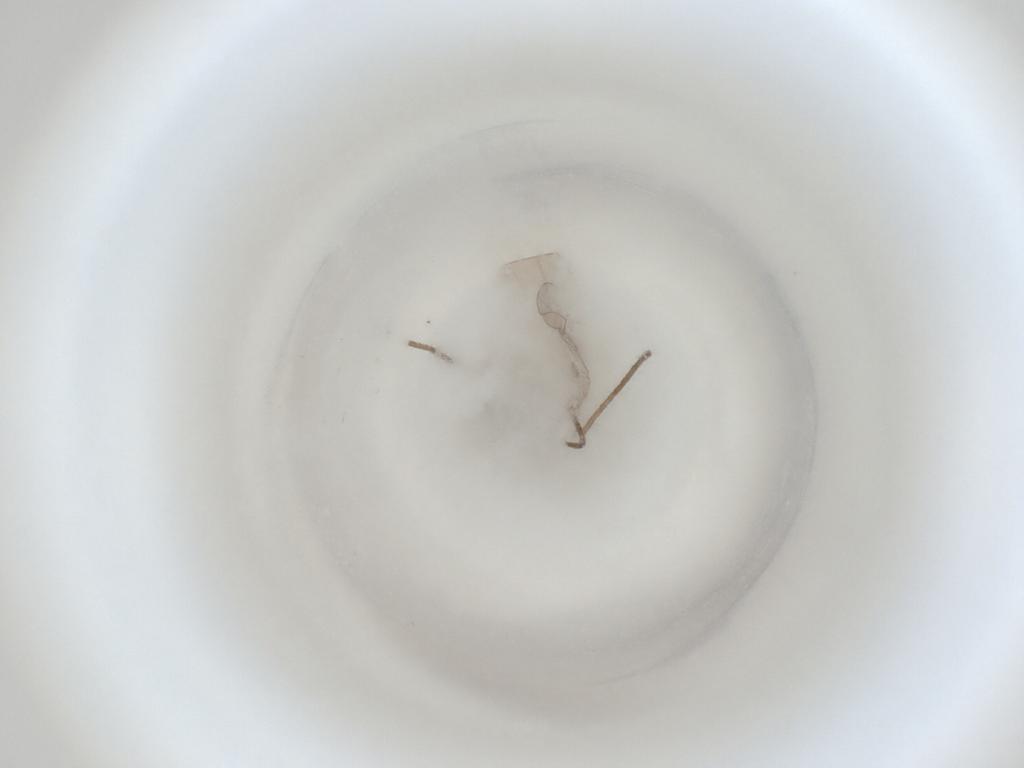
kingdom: Animalia
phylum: Arthropoda
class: Insecta
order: Diptera
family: Cecidomyiidae
